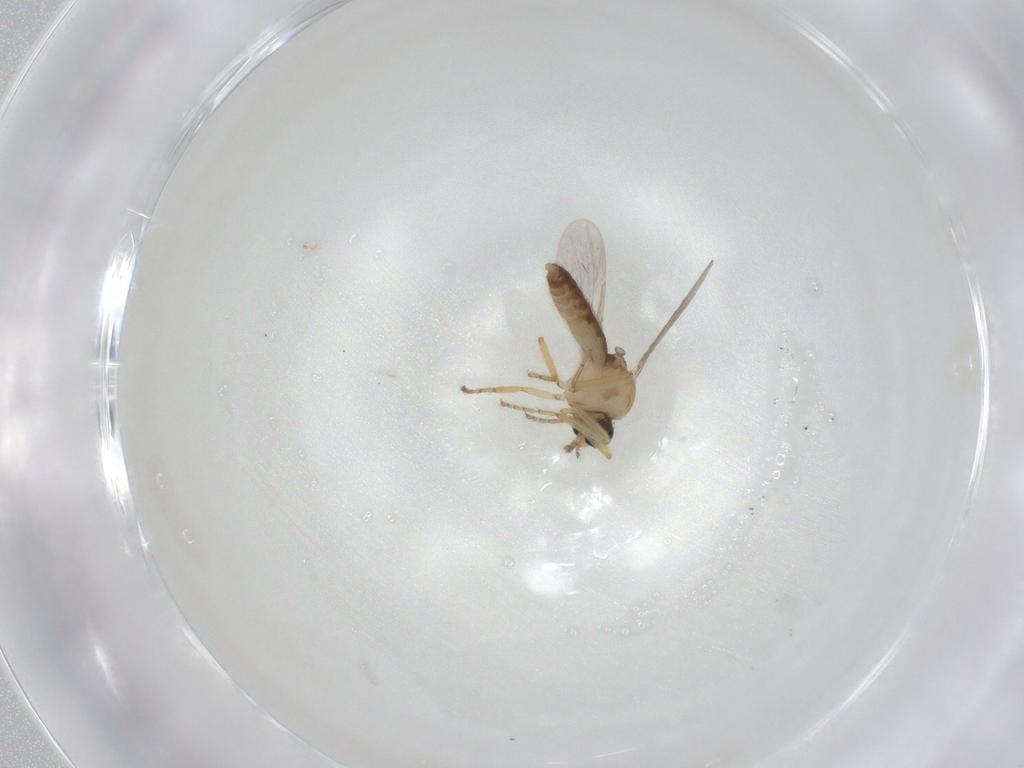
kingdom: Animalia
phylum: Arthropoda
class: Insecta
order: Diptera
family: Ceratopogonidae
